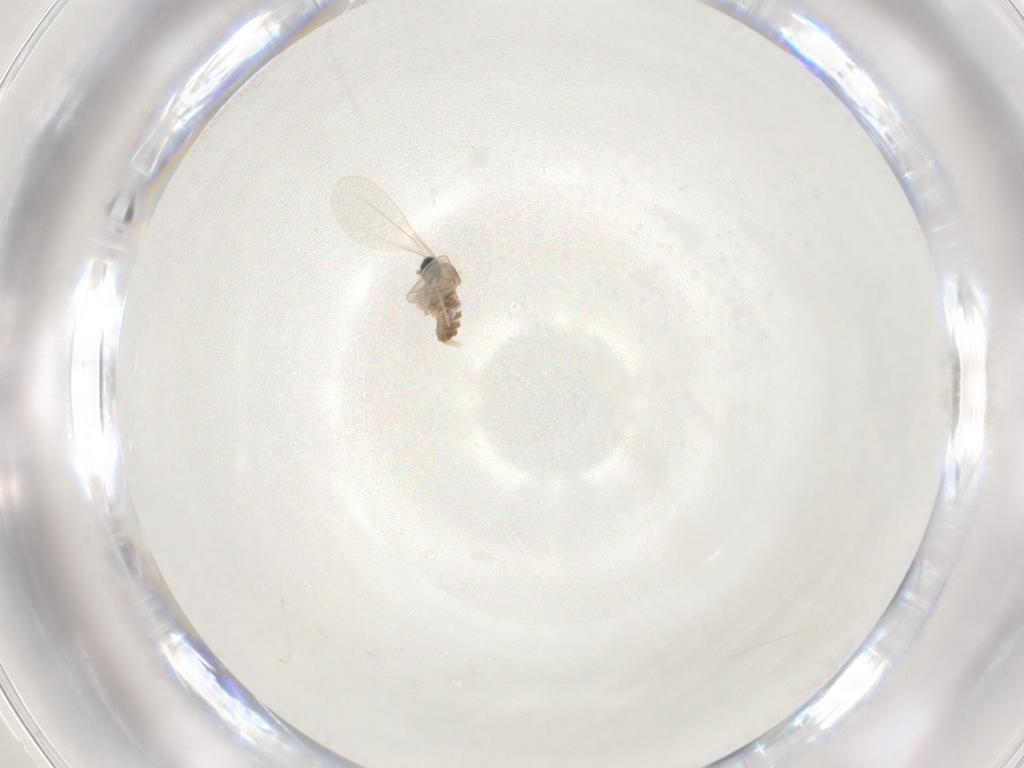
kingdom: Animalia
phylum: Arthropoda
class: Insecta
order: Diptera
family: Cecidomyiidae
